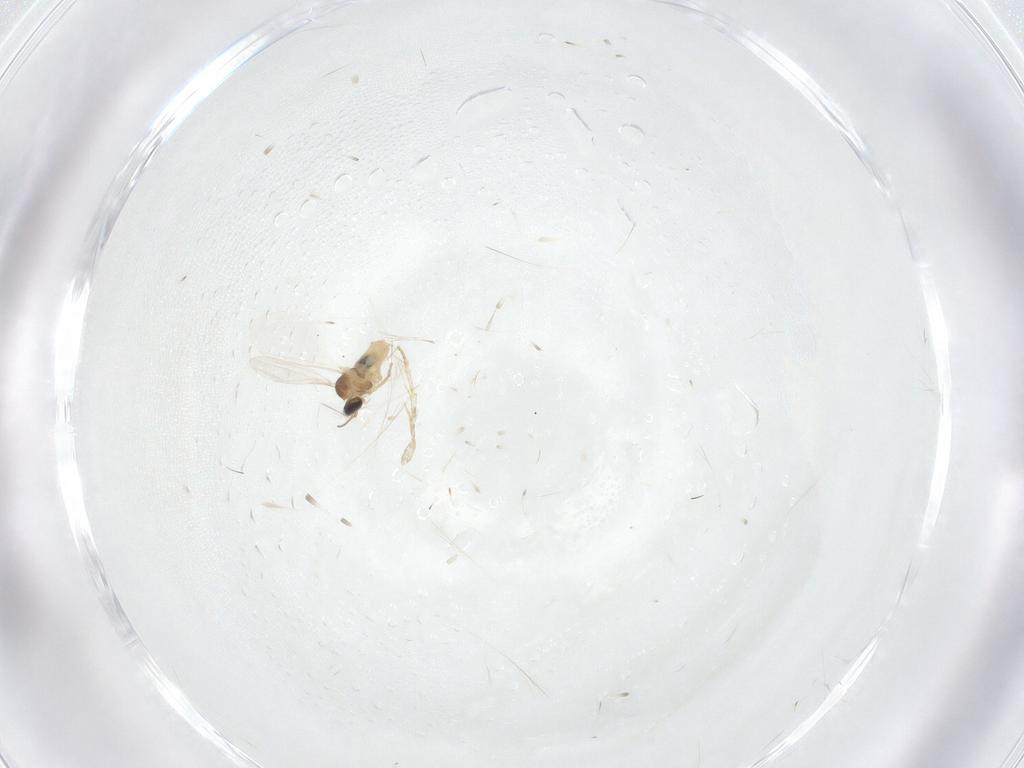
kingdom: Animalia
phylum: Arthropoda
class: Insecta
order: Diptera
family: Cecidomyiidae
